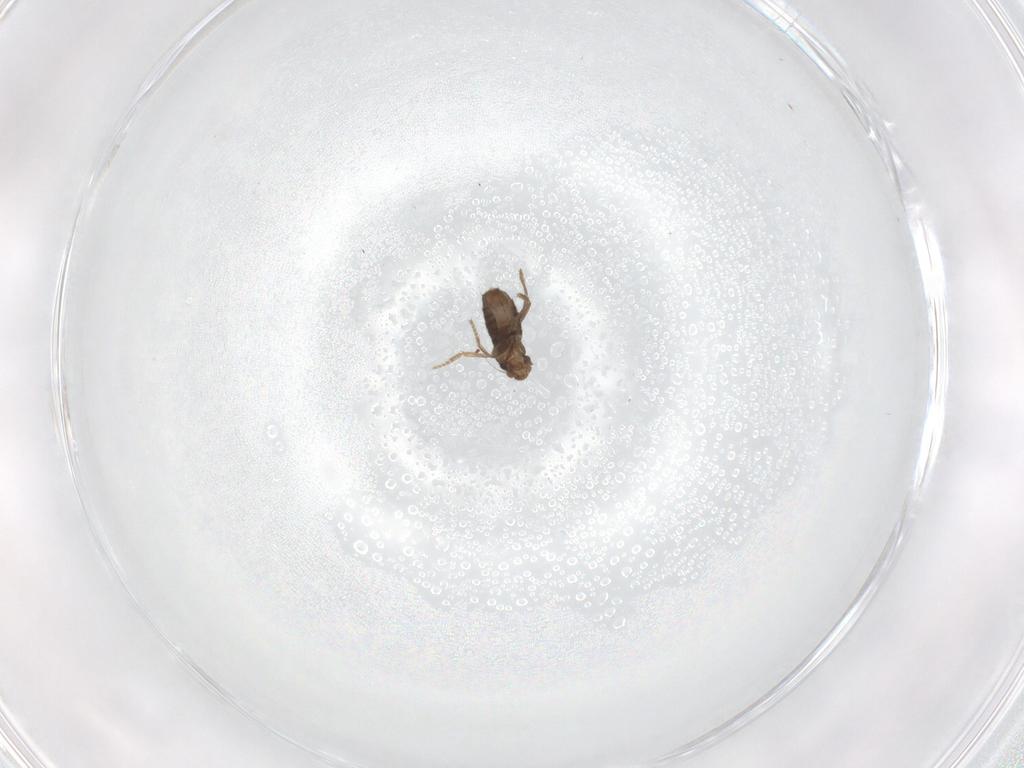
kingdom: Animalia
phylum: Arthropoda
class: Insecta
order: Diptera
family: Phoridae
